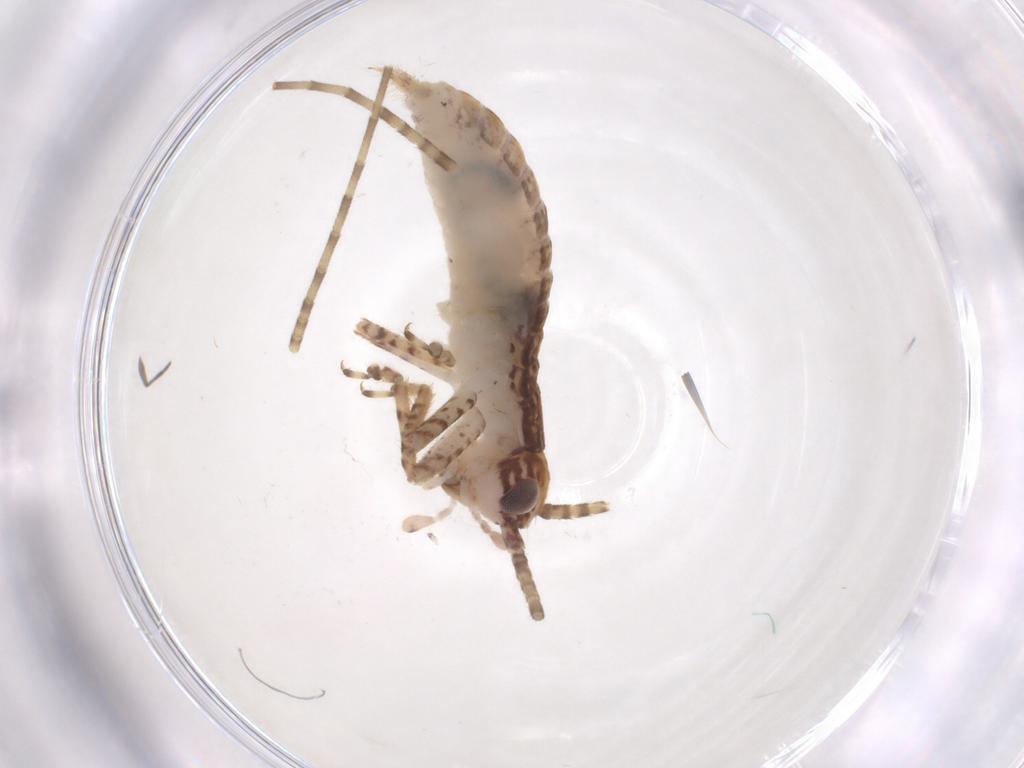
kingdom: Animalia
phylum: Arthropoda
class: Insecta
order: Orthoptera
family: Gryllidae
